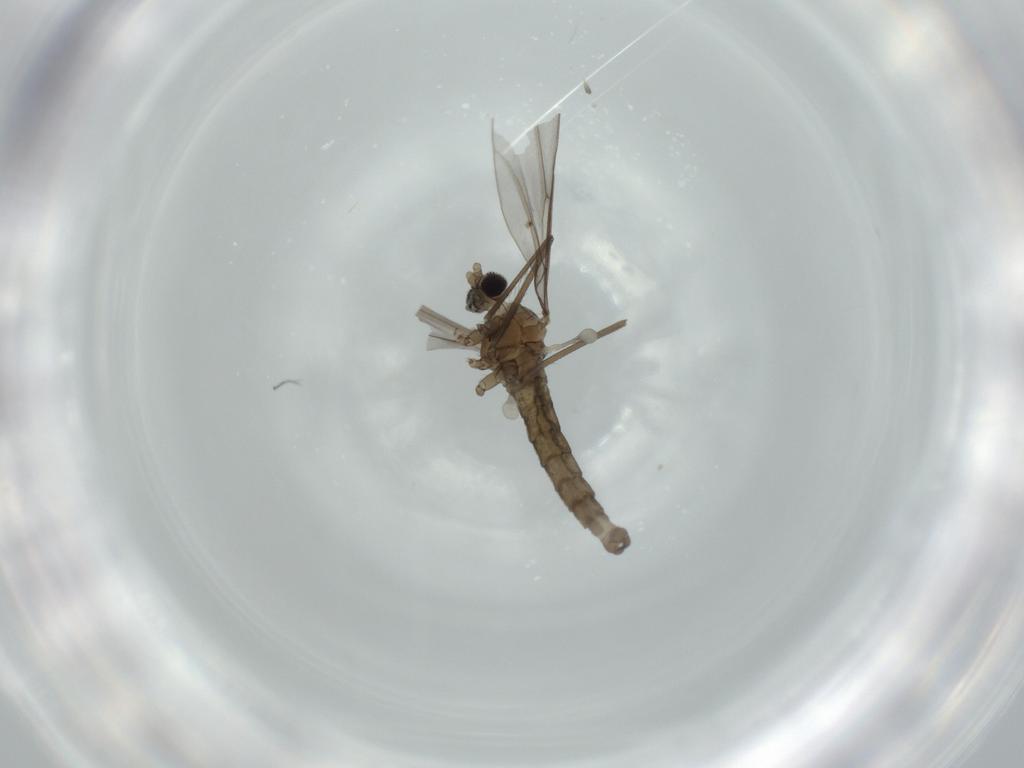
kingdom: Animalia
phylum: Arthropoda
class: Insecta
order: Diptera
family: Cecidomyiidae
